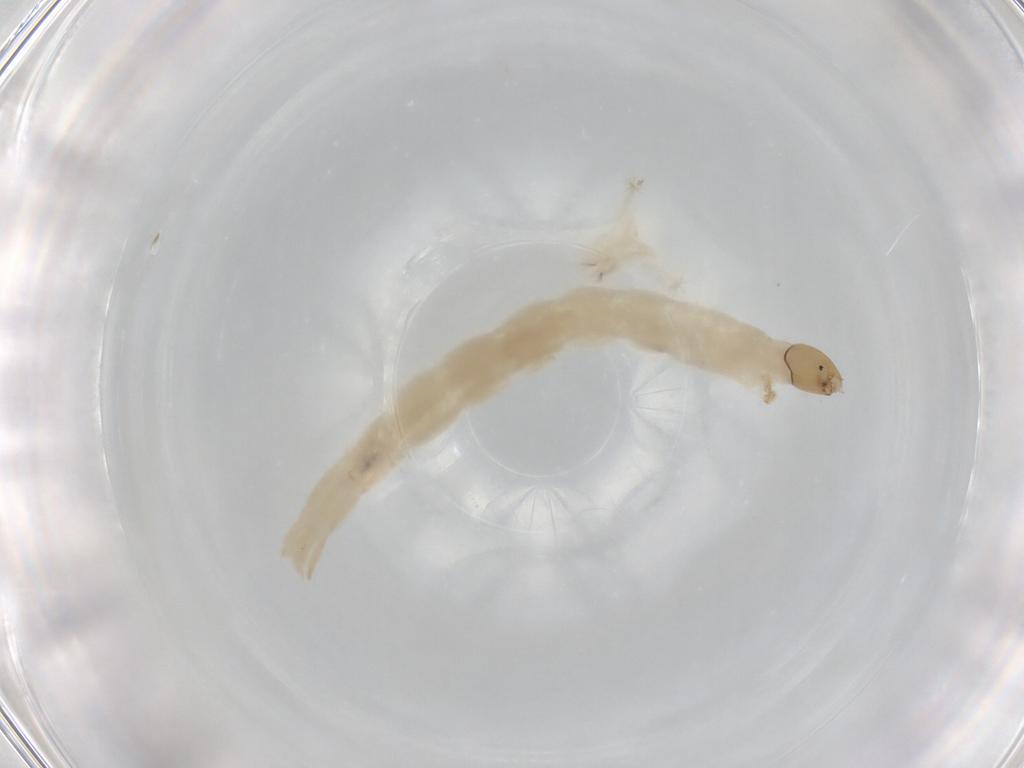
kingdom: Animalia
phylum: Arthropoda
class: Insecta
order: Diptera
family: Chironomidae
